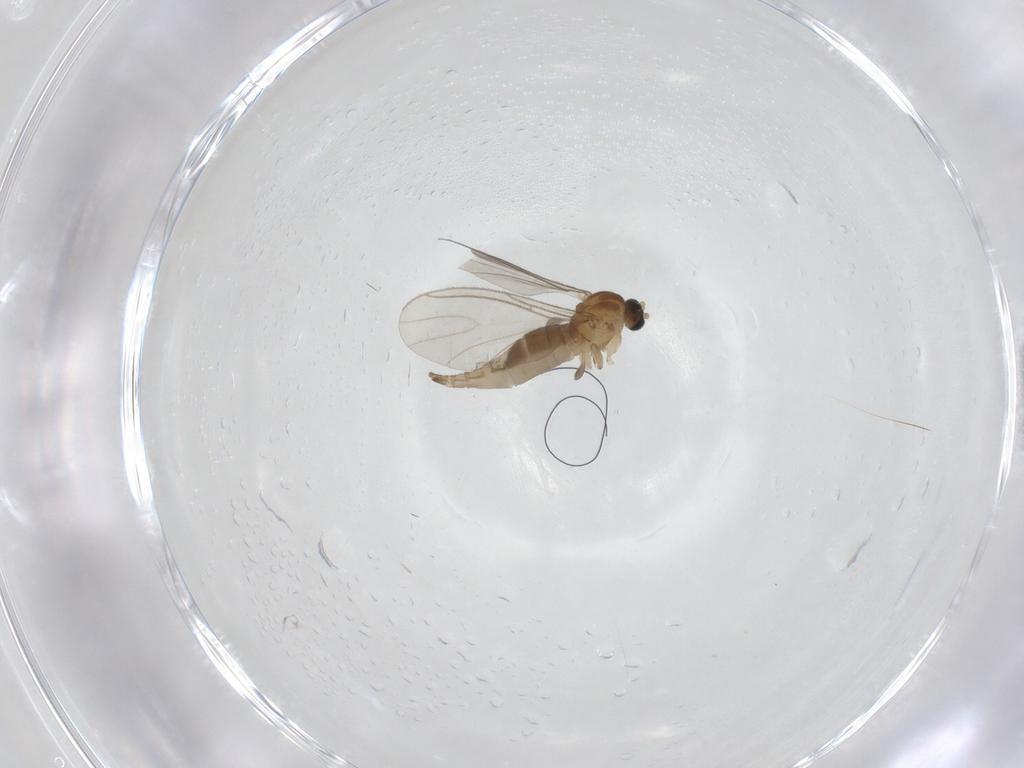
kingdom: Animalia
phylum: Arthropoda
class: Insecta
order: Diptera
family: Sciaridae
